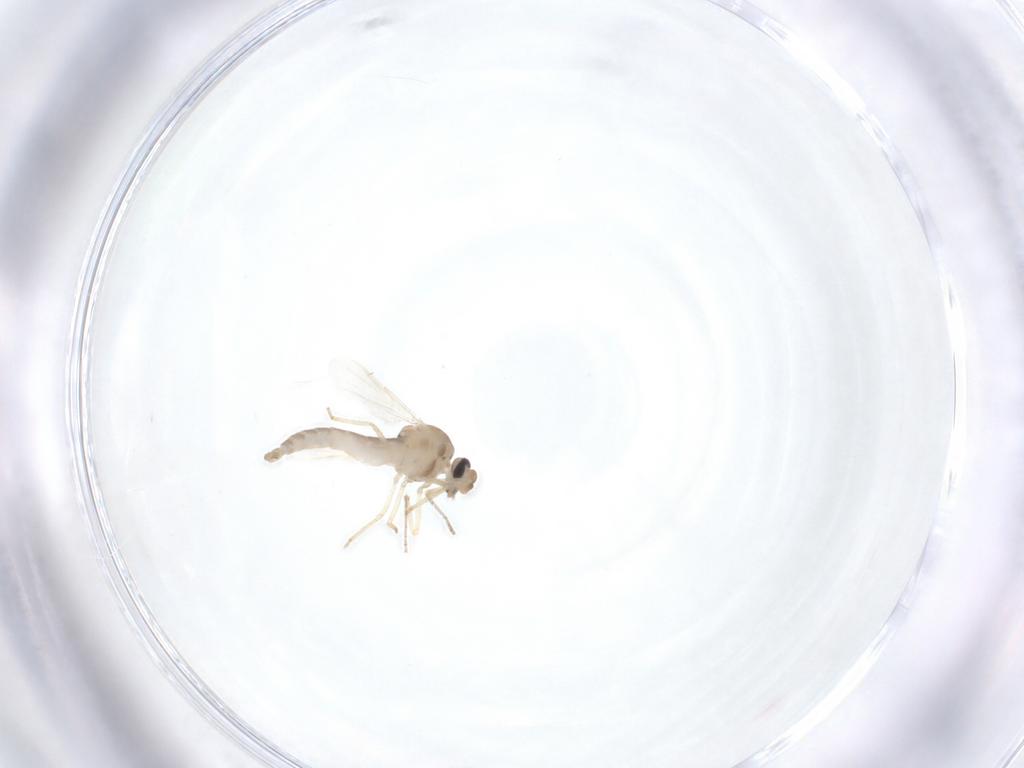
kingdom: Animalia
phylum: Arthropoda
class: Insecta
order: Diptera
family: Ceratopogonidae
